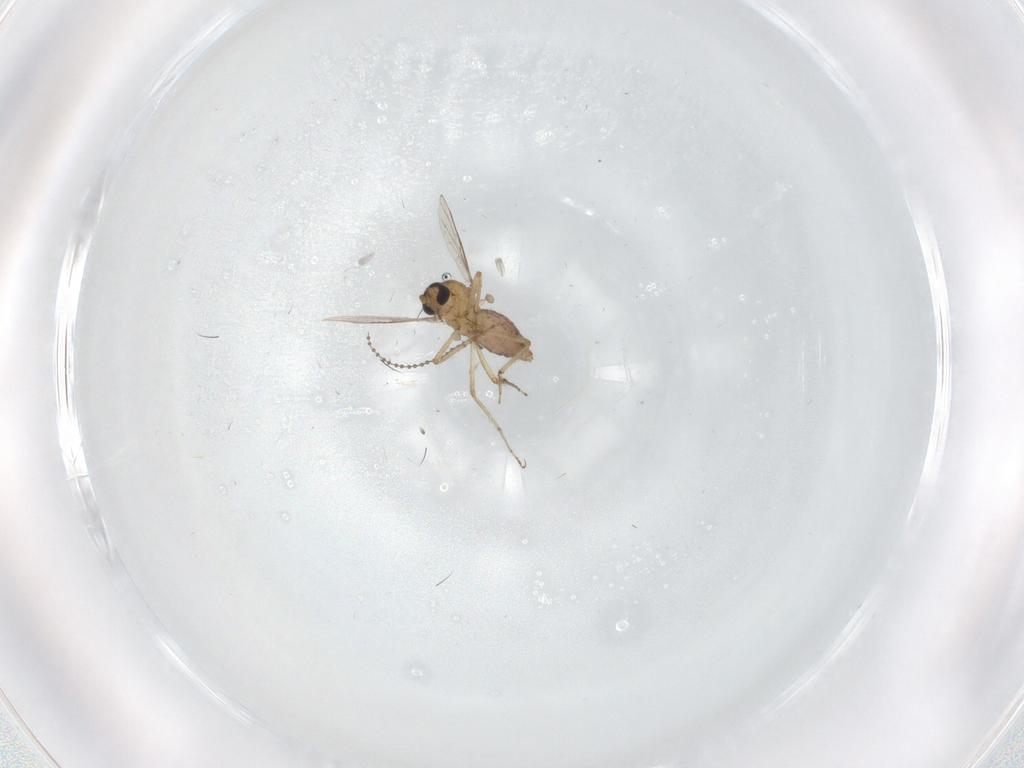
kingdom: Animalia
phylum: Arthropoda
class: Insecta
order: Diptera
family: Cecidomyiidae
